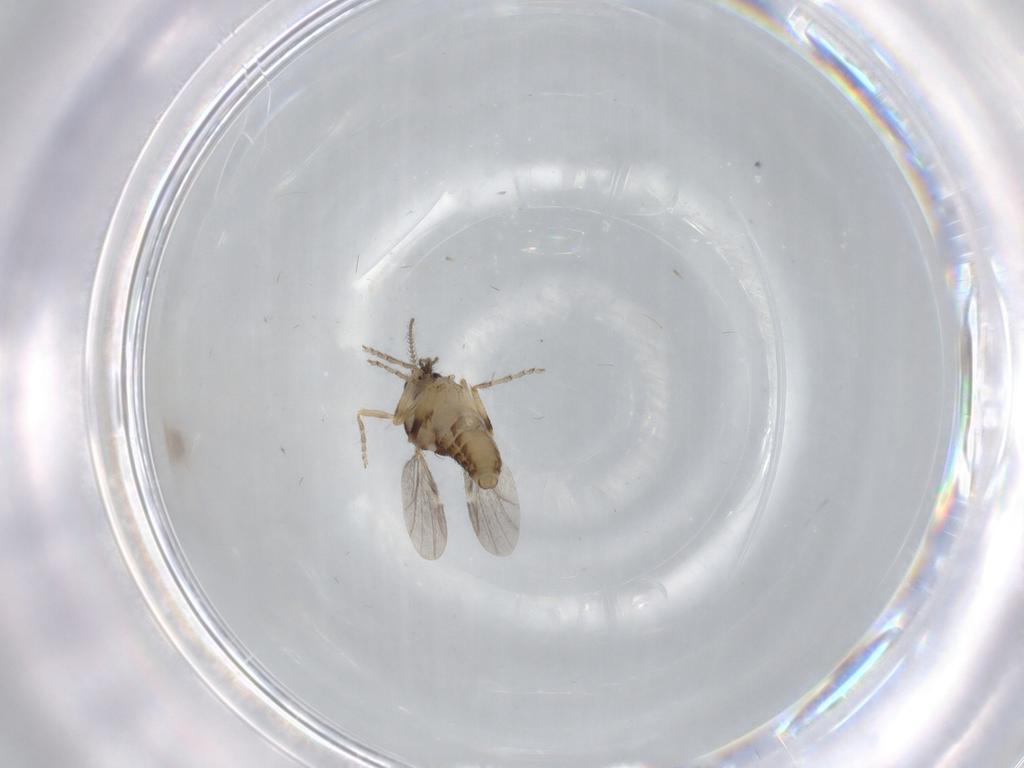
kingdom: Animalia
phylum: Arthropoda
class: Insecta
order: Diptera
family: Ceratopogonidae
